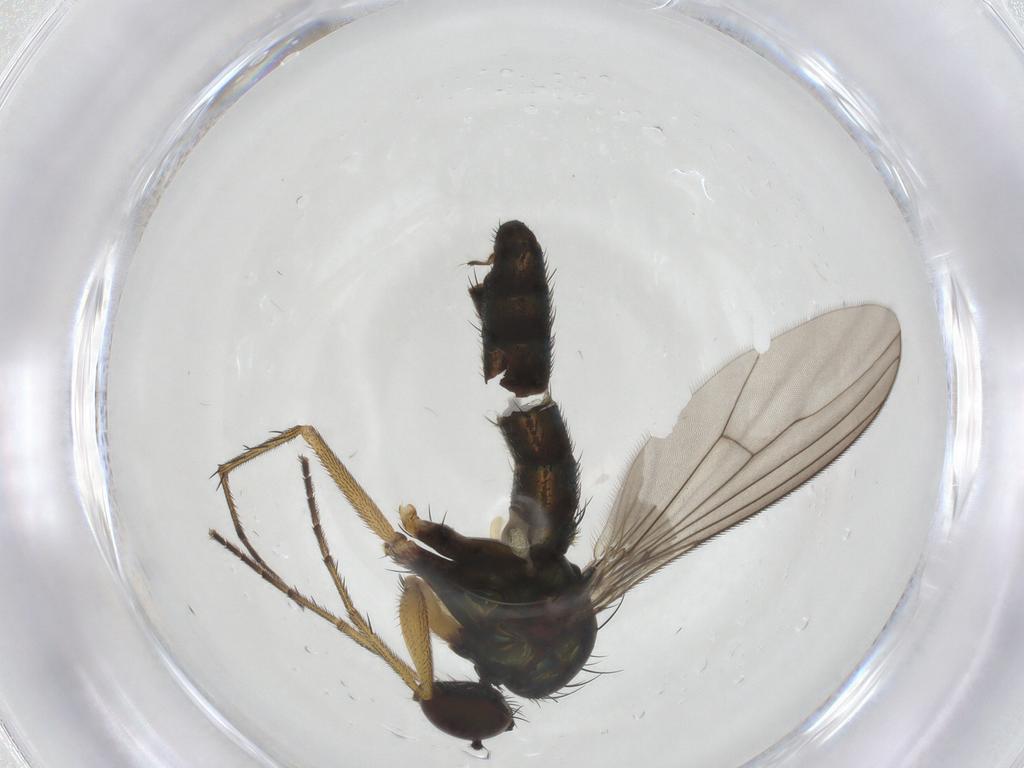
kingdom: Animalia
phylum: Arthropoda
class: Insecta
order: Diptera
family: Dolichopodidae
